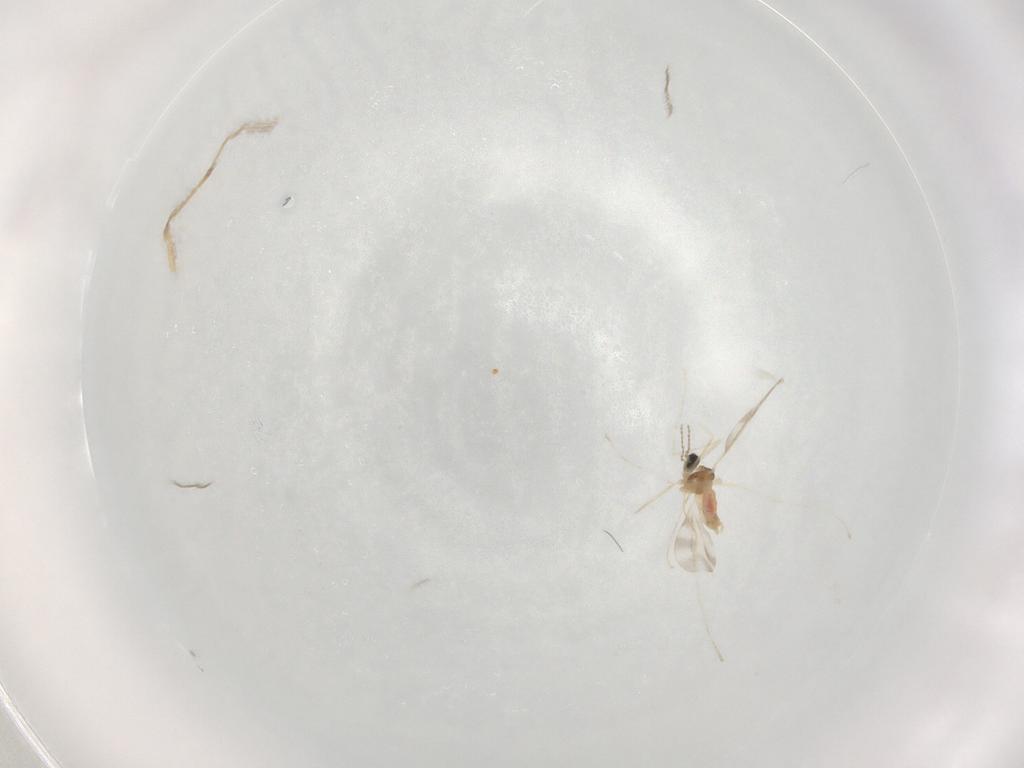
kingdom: Animalia
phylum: Arthropoda
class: Insecta
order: Diptera
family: Chironomidae
